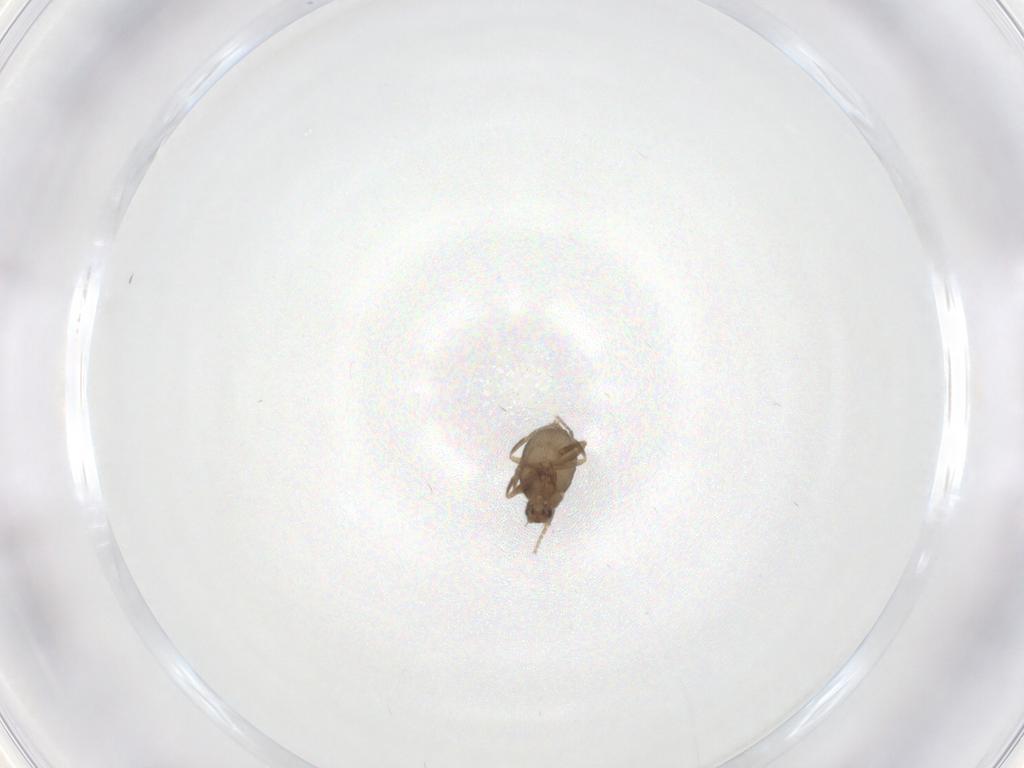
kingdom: Animalia
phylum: Arthropoda
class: Insecta
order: Diptera
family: Phoridae
